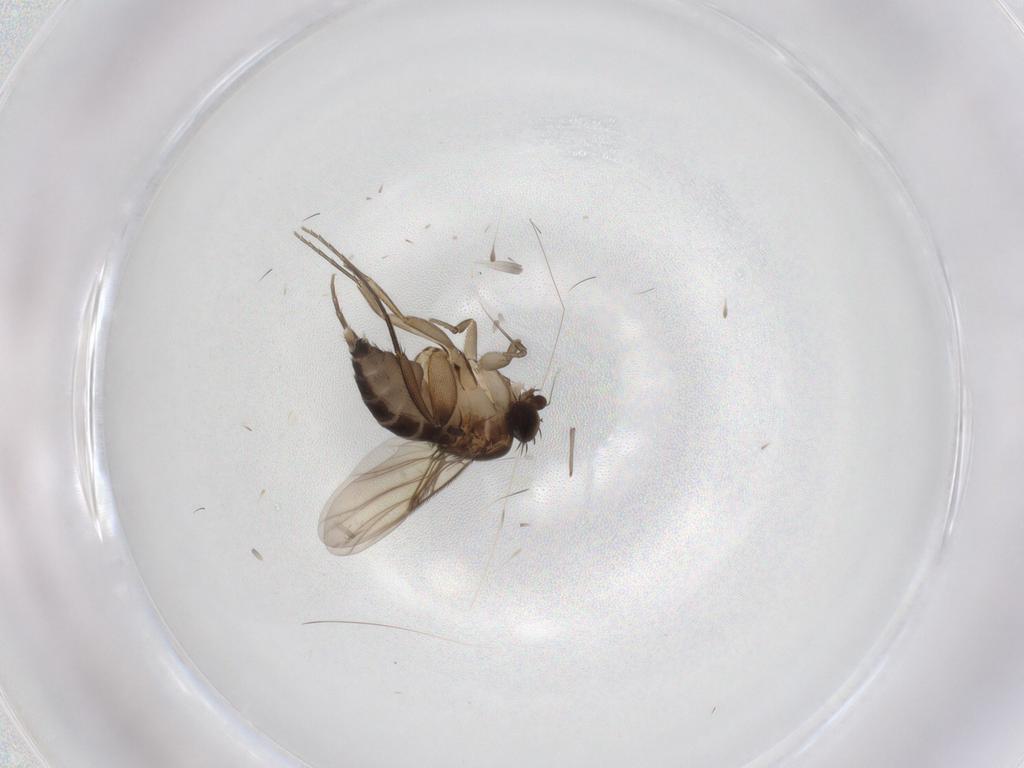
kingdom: Animalia
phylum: Arthropoda
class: Insecta
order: Diptera
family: Phoridae
